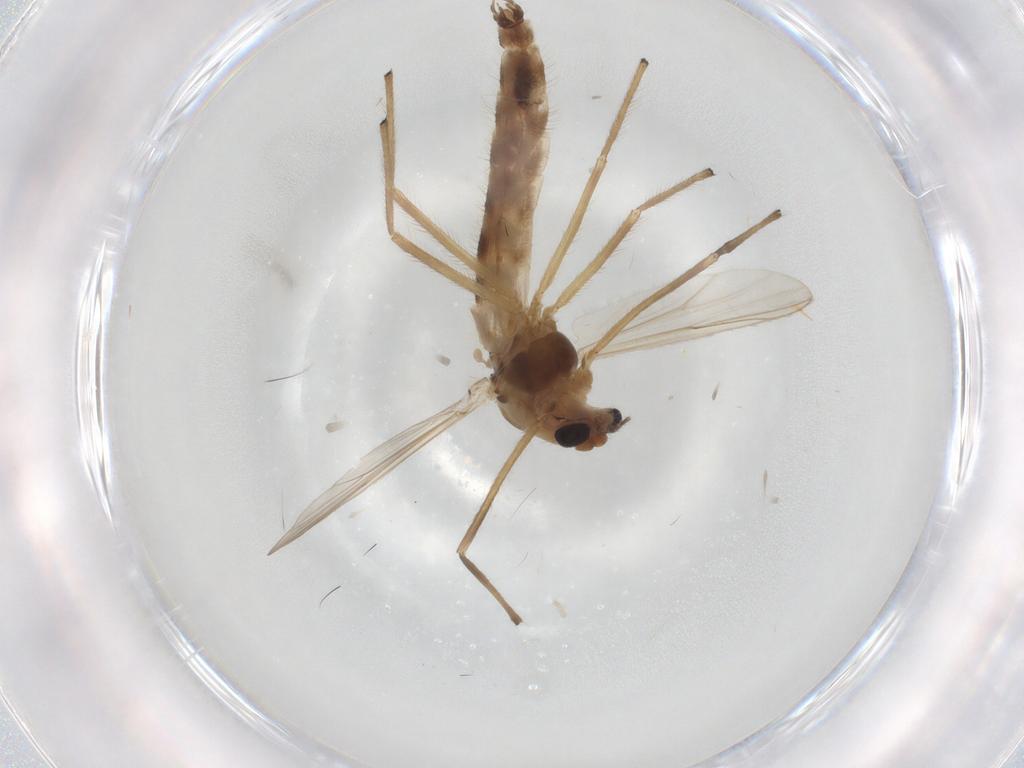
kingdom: Animalia
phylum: Arthropoda
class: Insecta
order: Diptera
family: Chironomidae
